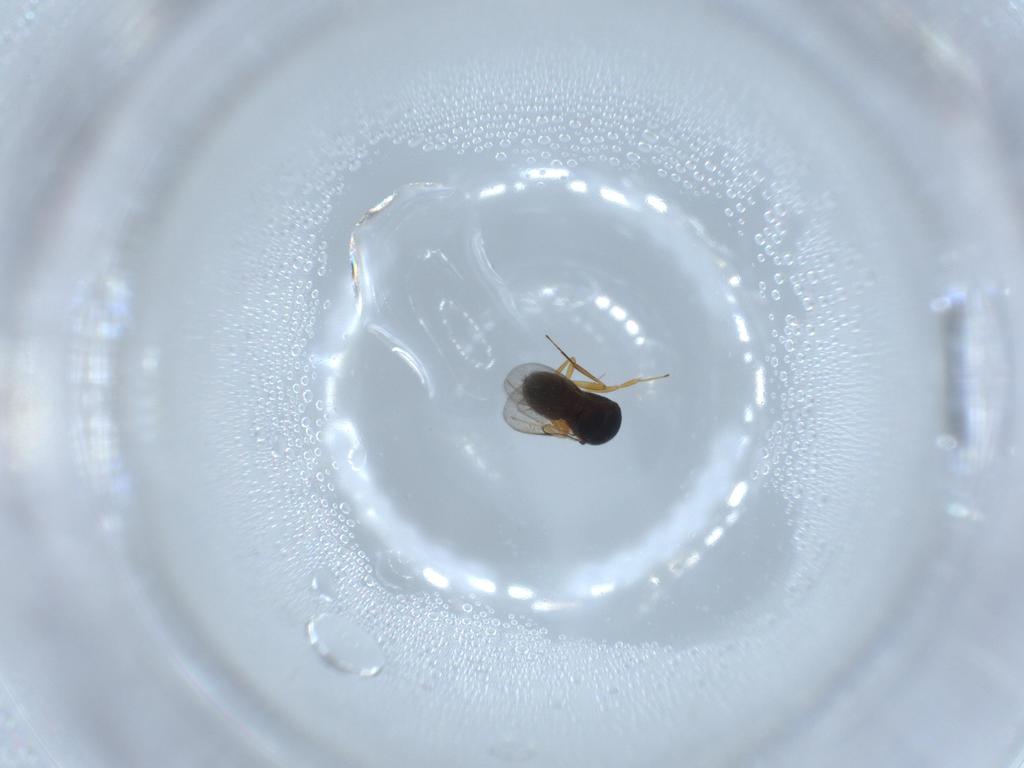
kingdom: Animalia
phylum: Arthropoda
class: Insecta
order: Hymenoptera
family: Scelionidae
